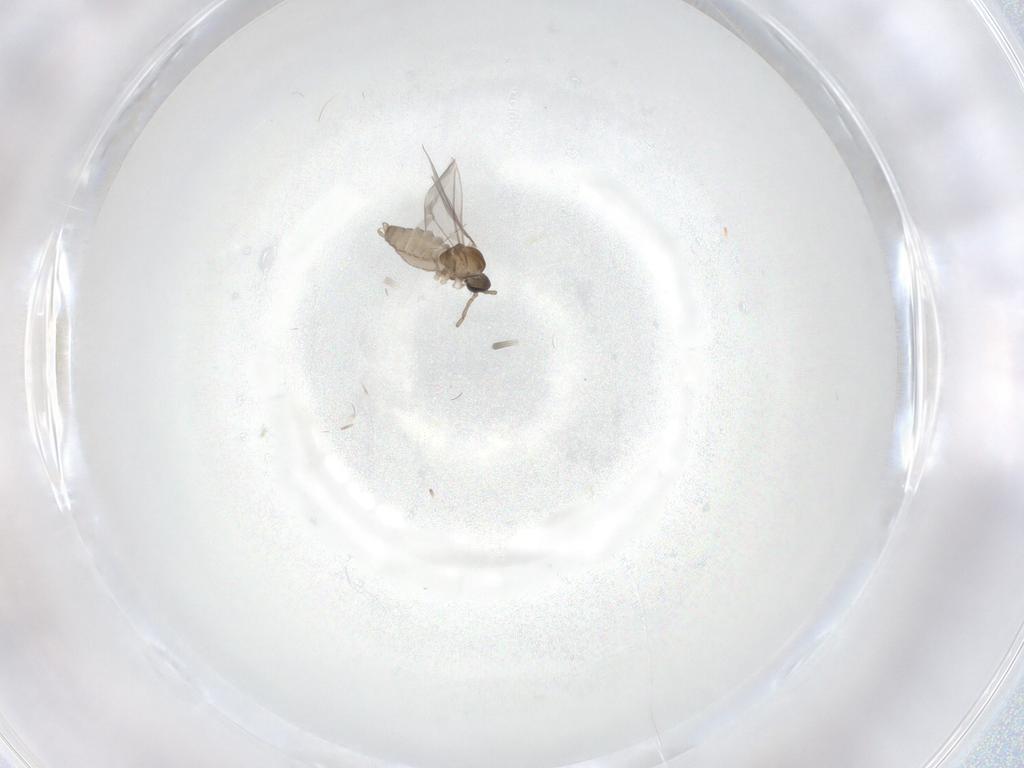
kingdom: Animalia
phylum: Arthropoda
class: Insecta
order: Diptera
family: Cecidomyiidae
